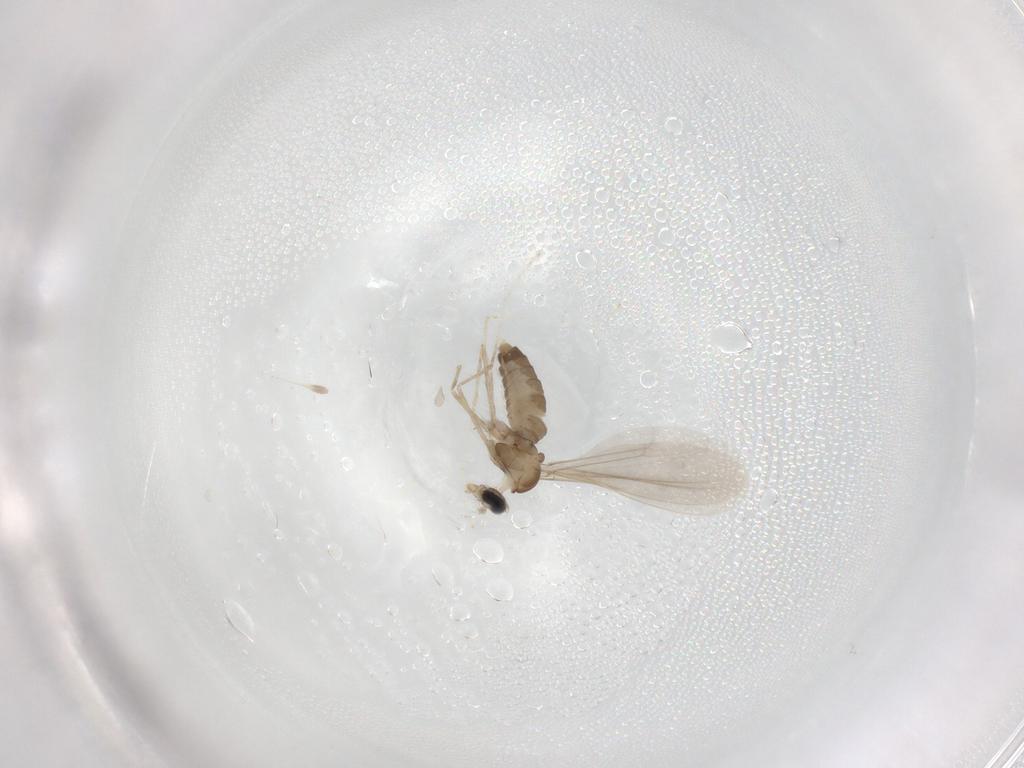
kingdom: Animalia
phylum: Arthropoda
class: Insecta
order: Diptera
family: Cecidomyiidae
